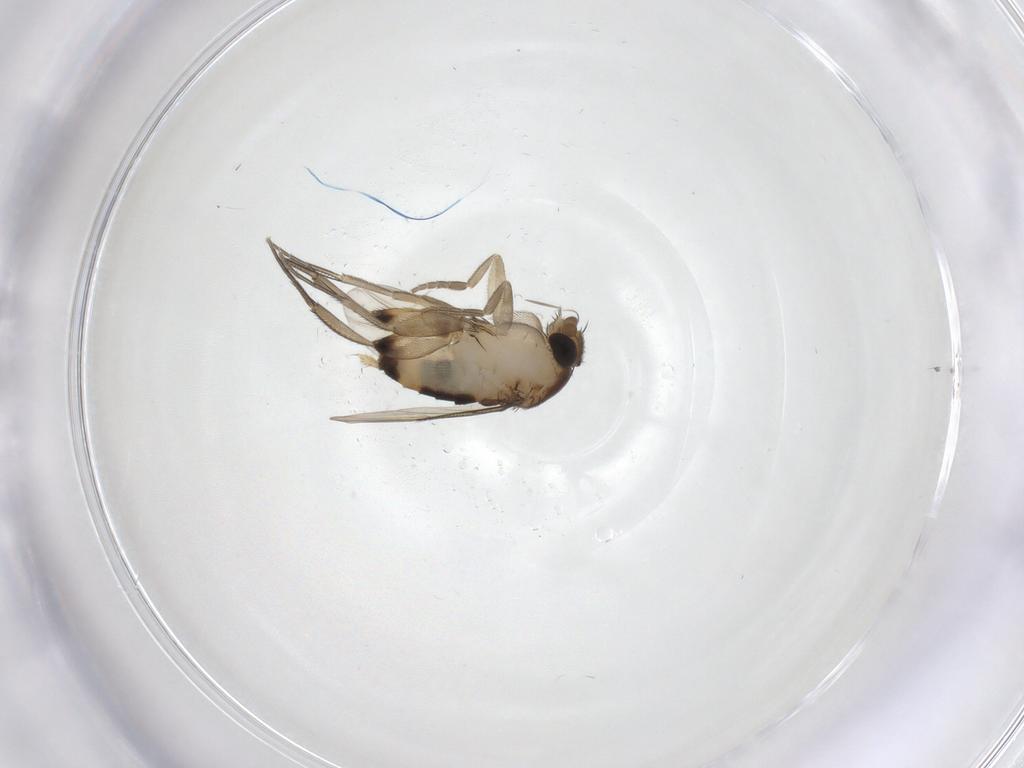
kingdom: Animalia
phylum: Arthropoda
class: Insecta
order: Diptera
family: Phoridae
